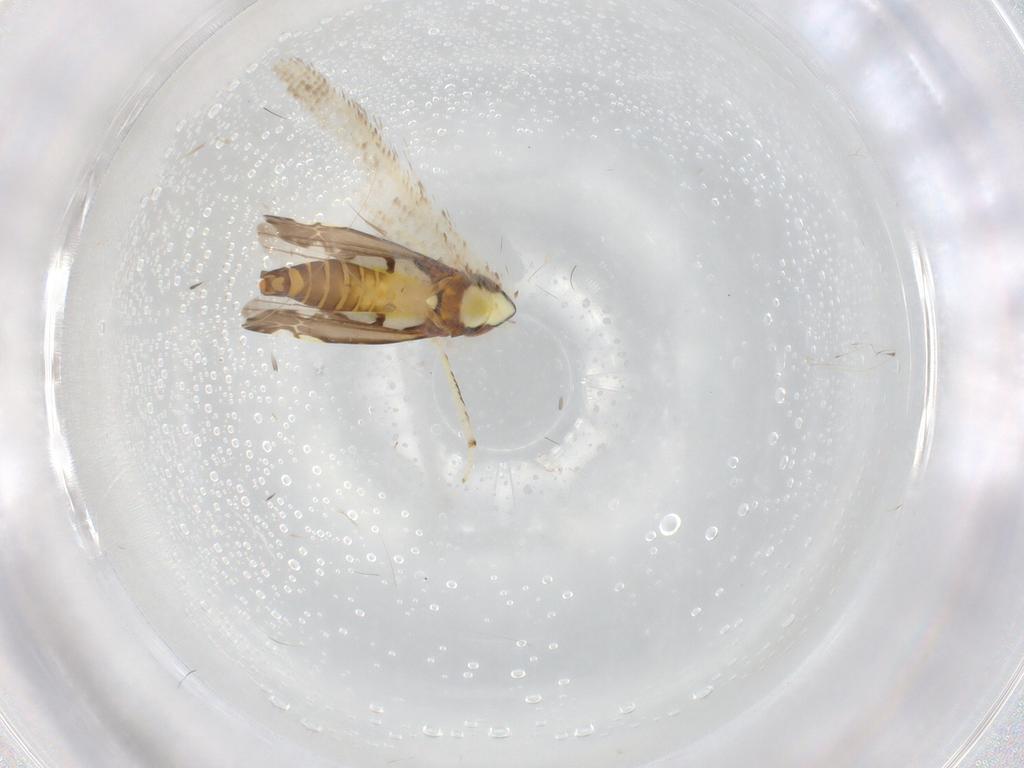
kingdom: Animalia
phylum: Arthropoda
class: Insecta
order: Hemiptera
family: Cicadellidae
